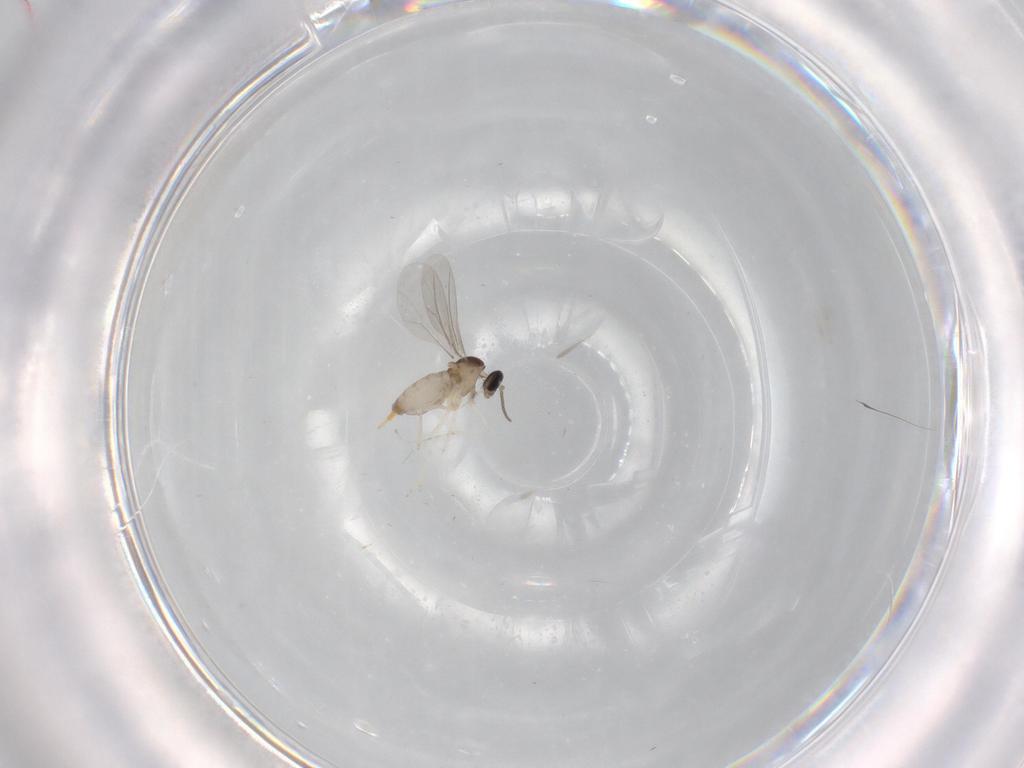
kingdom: Animalia
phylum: Arthropoda
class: Insecta
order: Diptera
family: Cecidomyiidae
